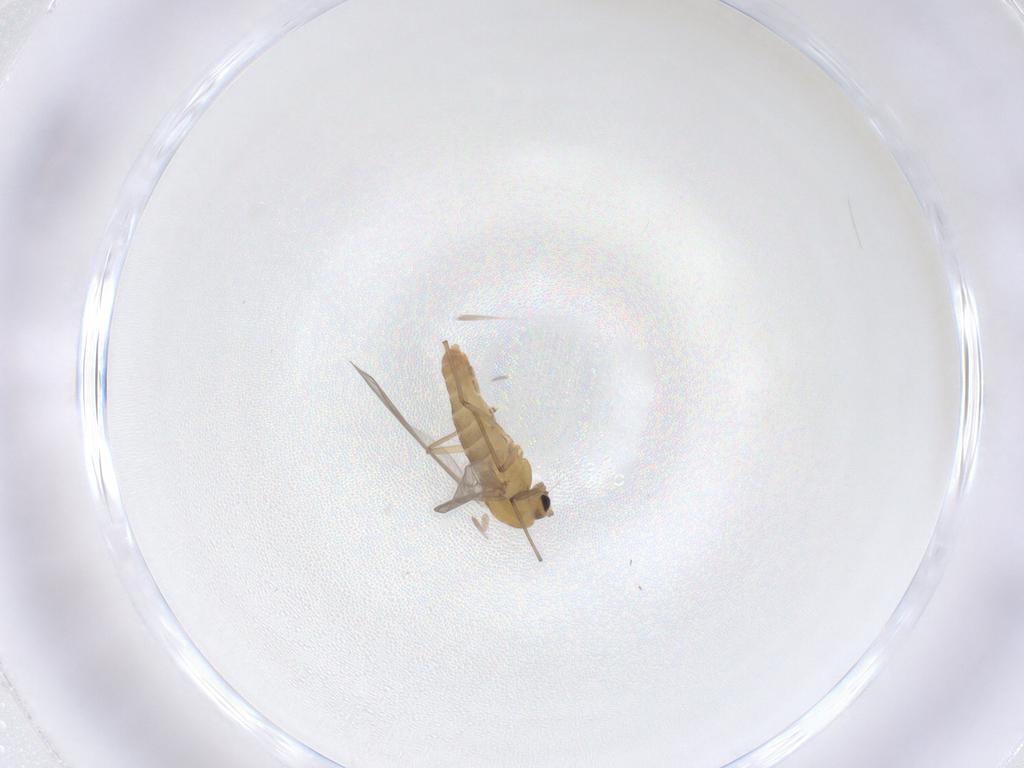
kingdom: Animalia
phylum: Arthropoda
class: Insecta
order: Diptera
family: Chironomidae
